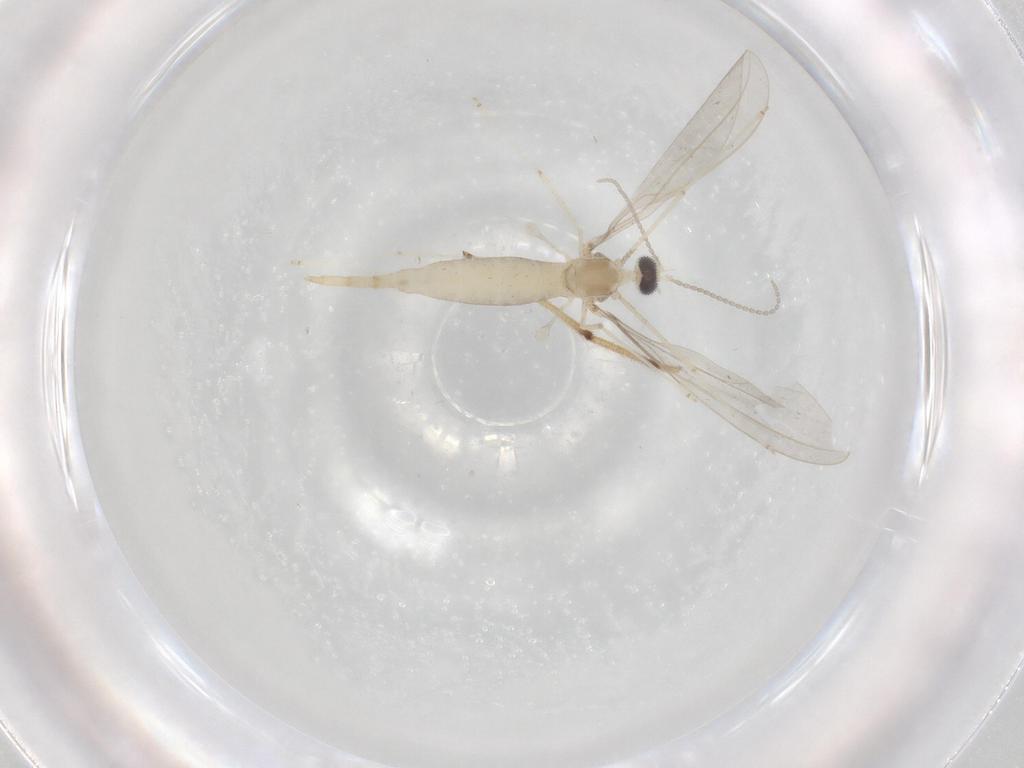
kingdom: Animalia
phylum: Arthropoda
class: Insecta
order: Diptera
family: Cecidomyiidae
